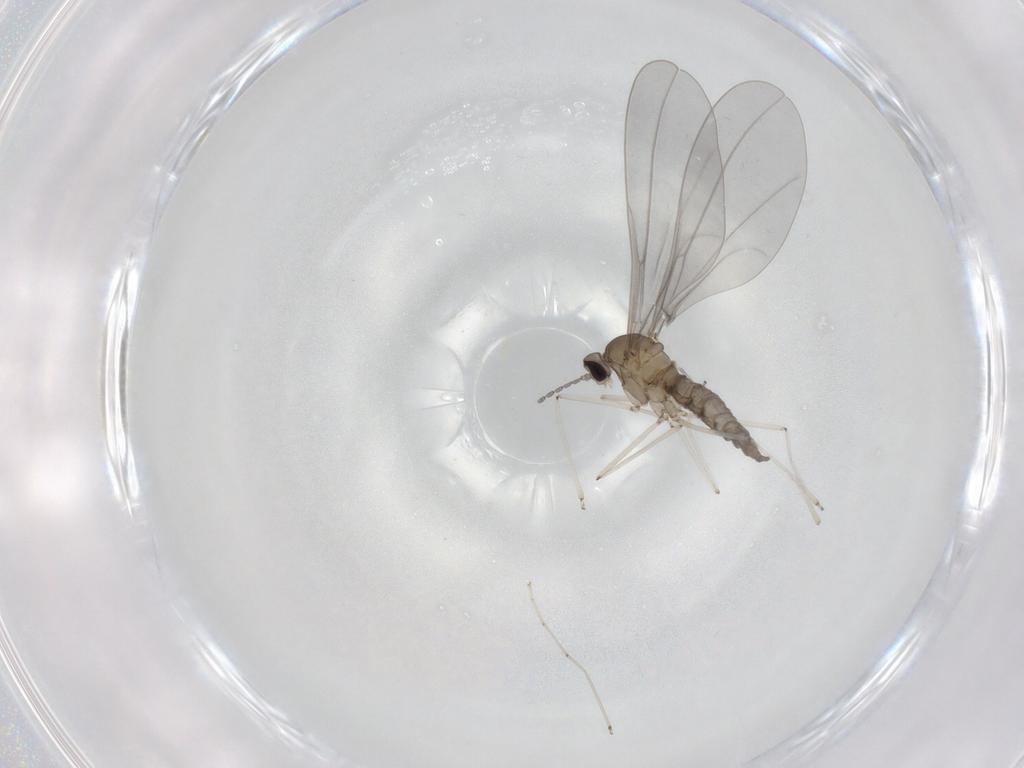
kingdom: Animalia
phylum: Arthropoda
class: Insecta
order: Diptera
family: Cecidomyiidae
